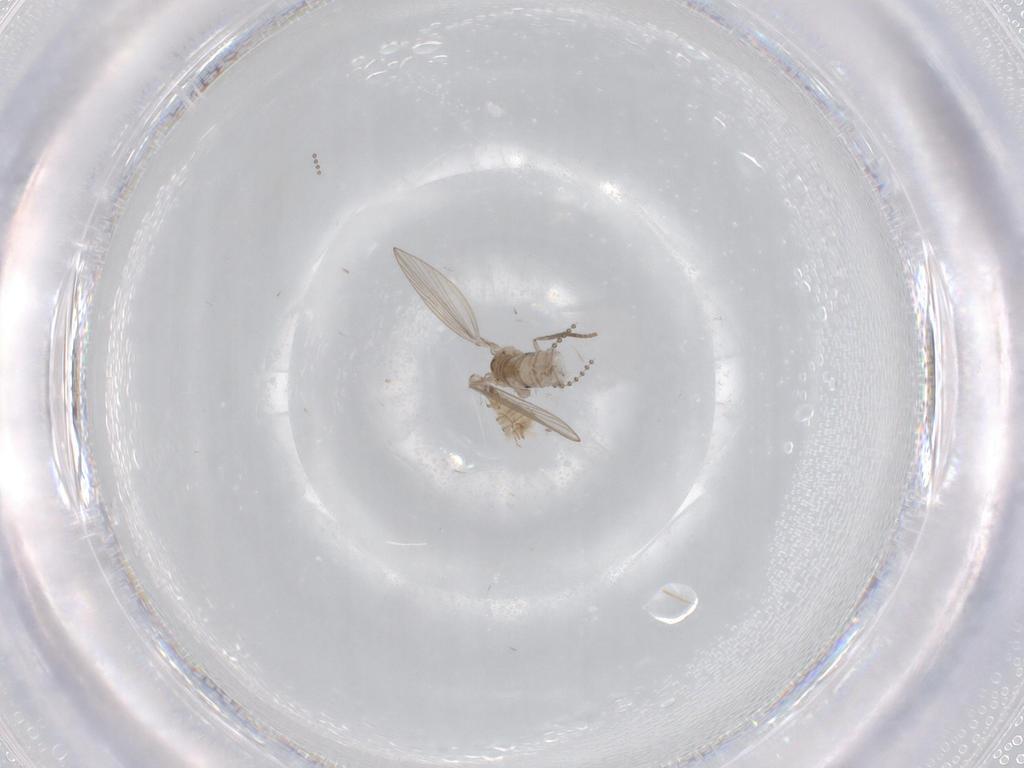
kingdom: Animalia
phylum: Arthropoda
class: Insecta
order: Diptera
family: Psychodidae
